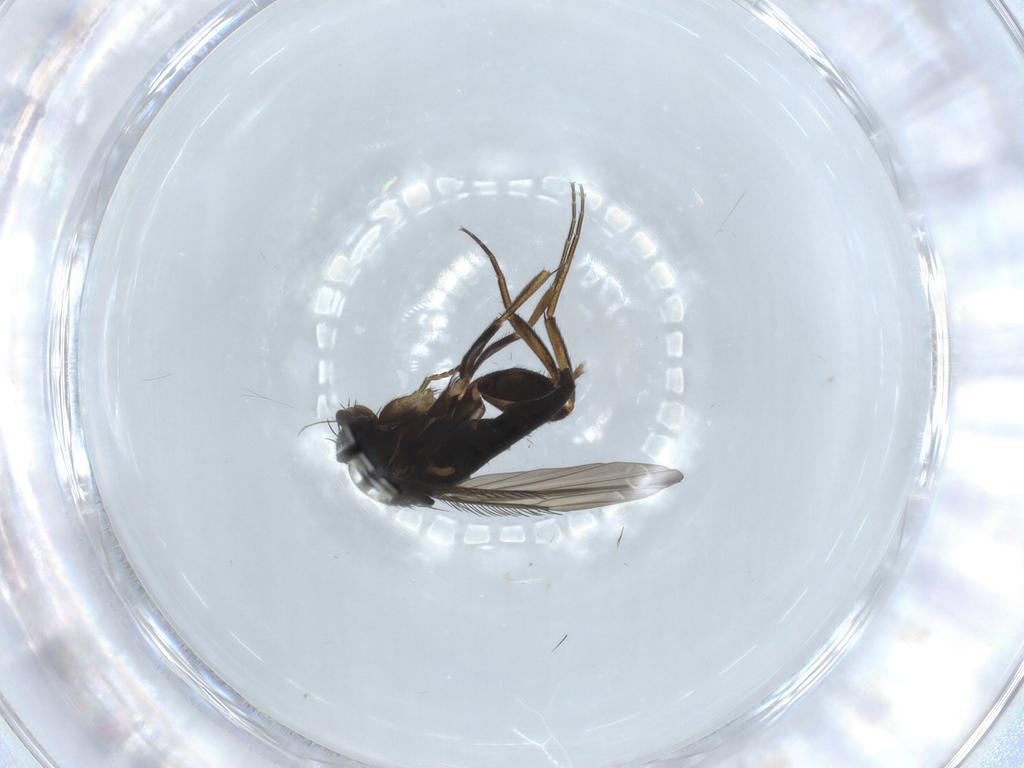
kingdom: Animalia
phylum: Arthropoda
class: Insecta
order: Diptera
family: Phoridae
